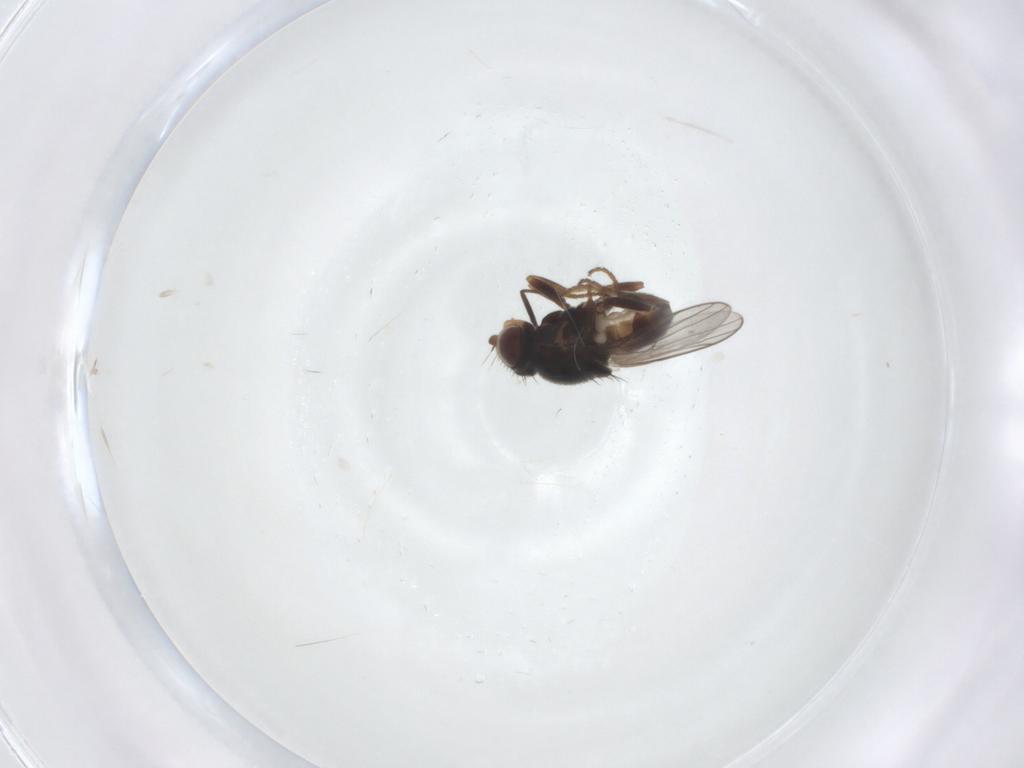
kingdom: Animalia
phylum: Arthropoda
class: Insecta
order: Diptera
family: Chloropidae
